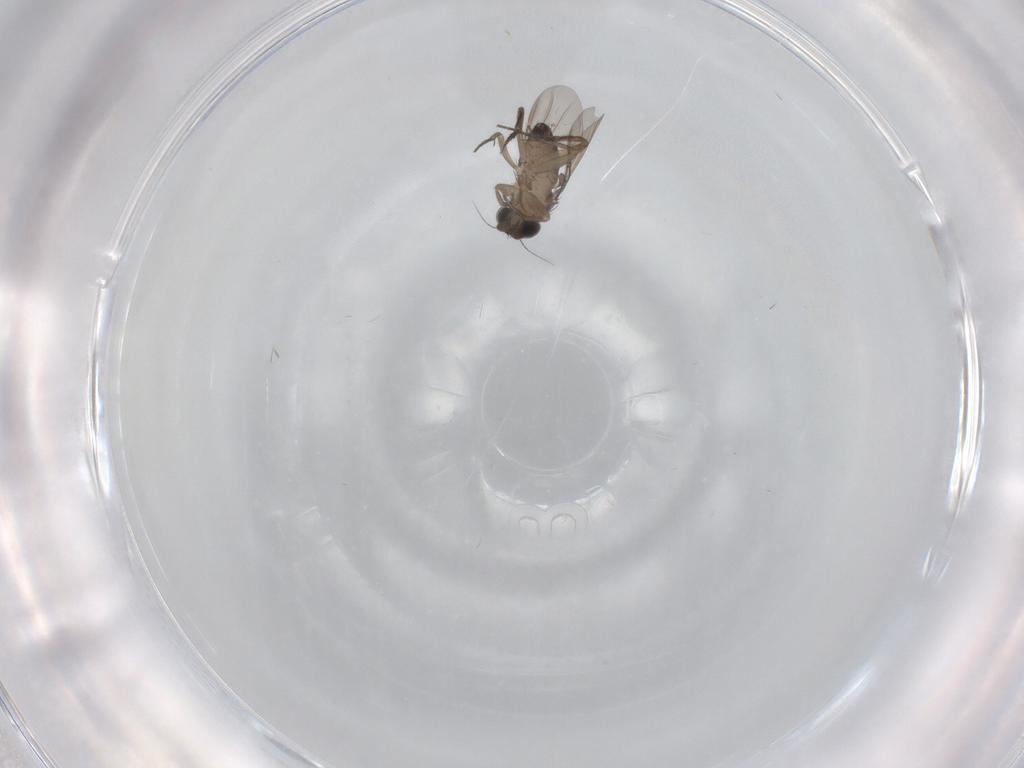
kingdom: Animalia
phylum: Arthropoda
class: Insecta
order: Diptera
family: Phoridae
